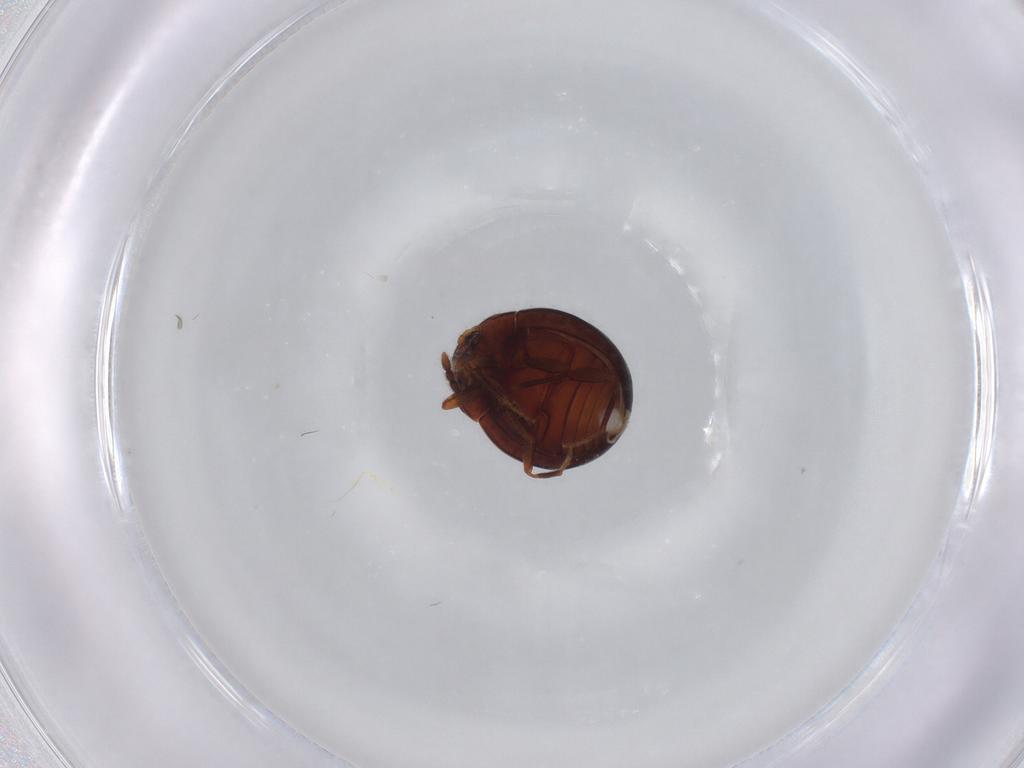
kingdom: Animalia
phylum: Arthropoda
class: Insecta
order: Coleoptera
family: Anamorphidae
